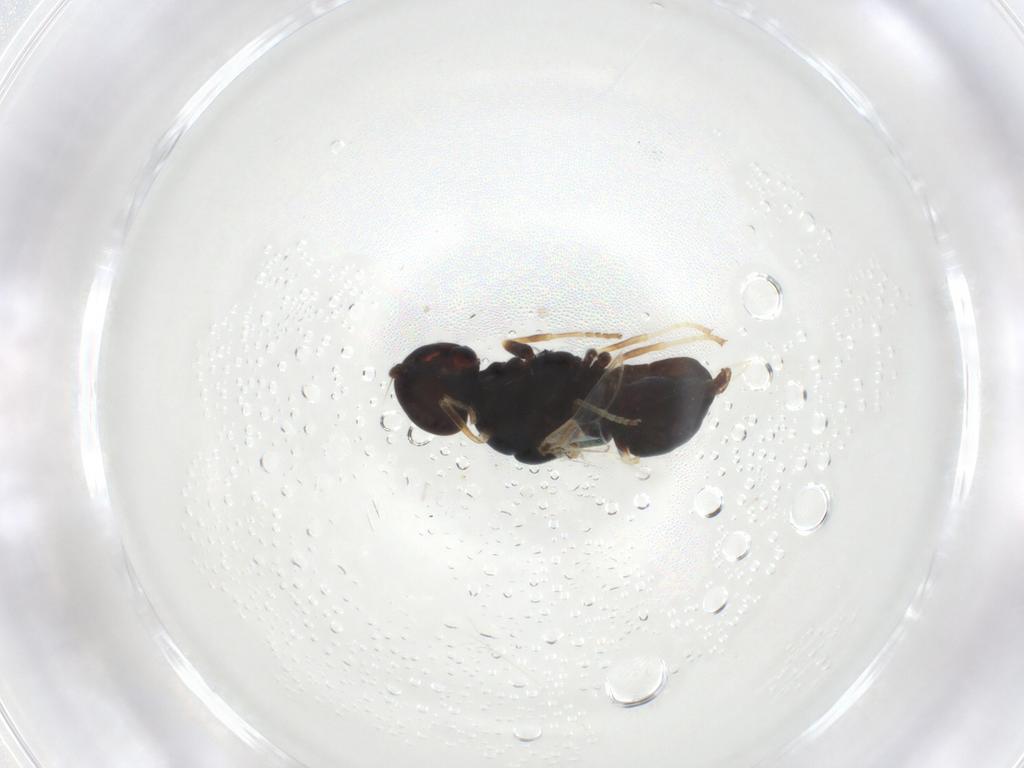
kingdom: Animalia
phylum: Arthropoda
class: Insecta
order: Diptera
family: Stratiomyidae
